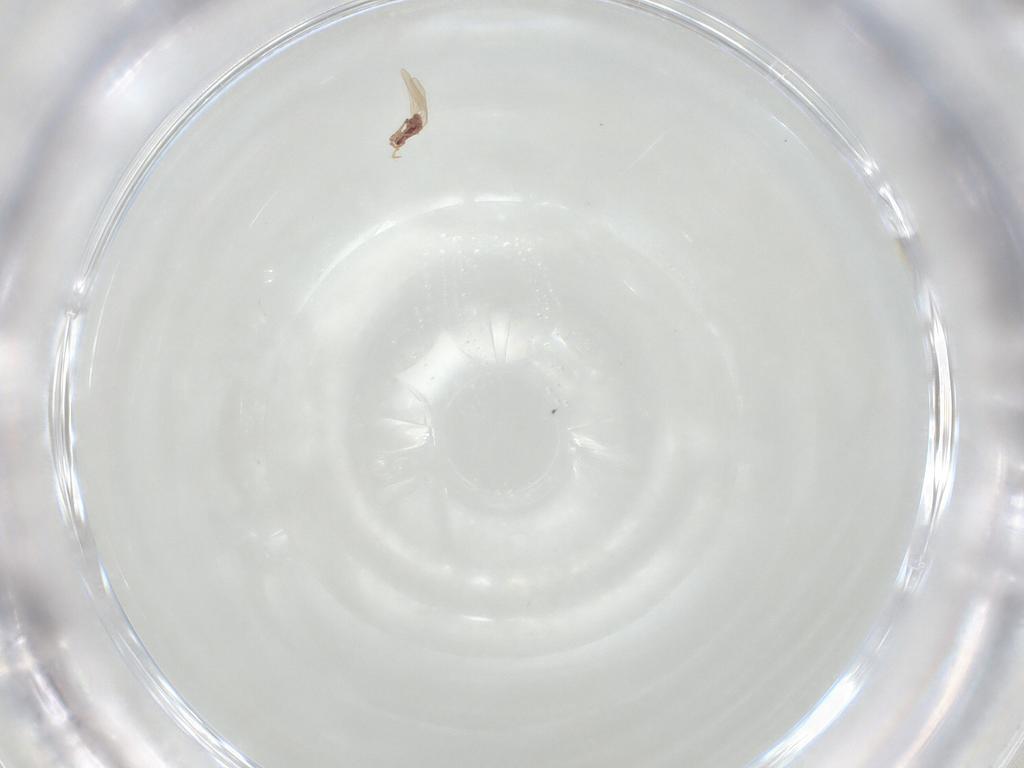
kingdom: Animalia
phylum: Arthropoda
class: Insecta
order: Hemiptera
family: Pseudococcidae
